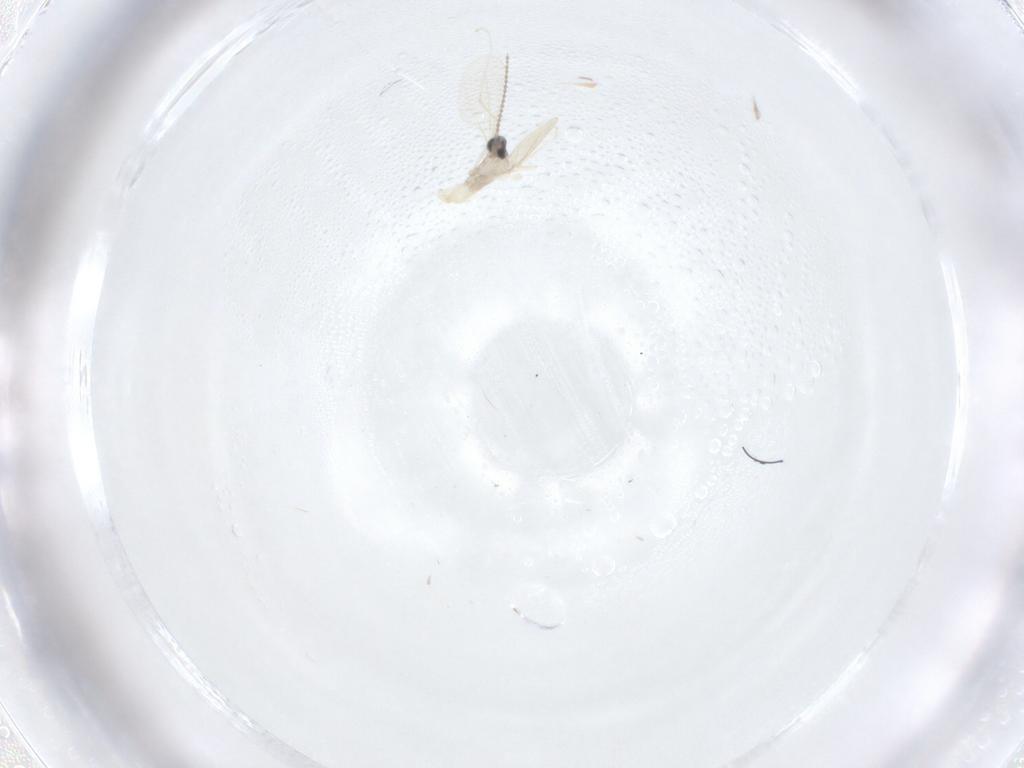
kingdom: Animalia
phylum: Arthropoda
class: Insecta
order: Diptera
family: Cecidomyiidae
